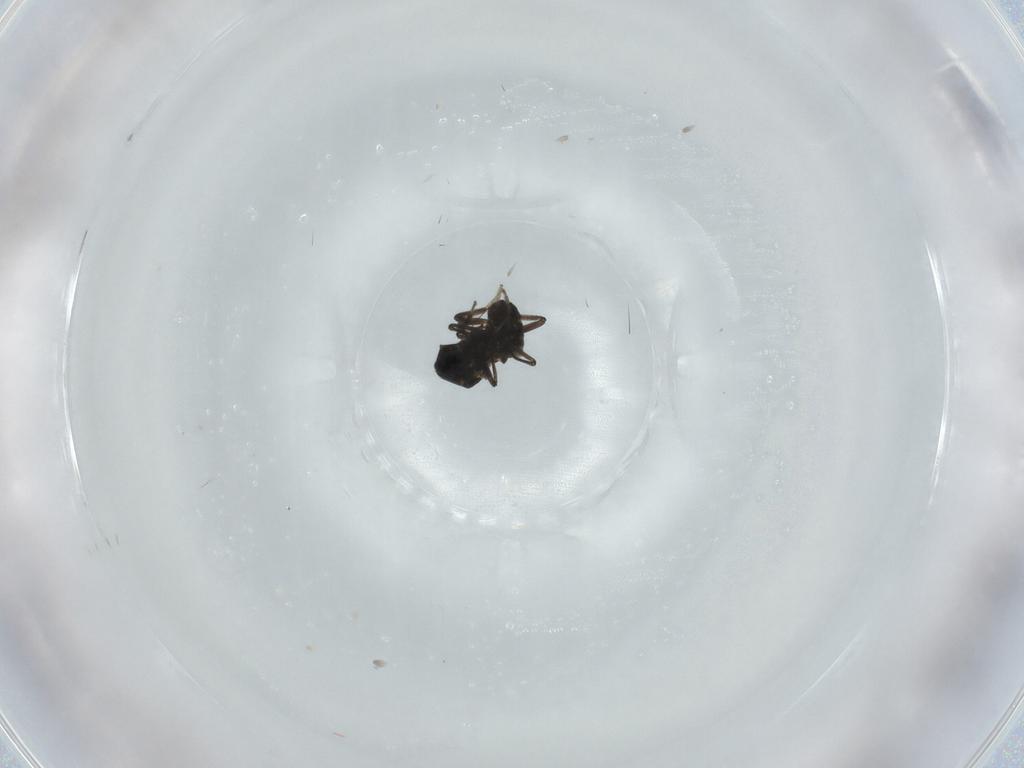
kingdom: Animalia
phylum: Arthropoda
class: Insecta
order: Diptera
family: Ceratopogonidae
